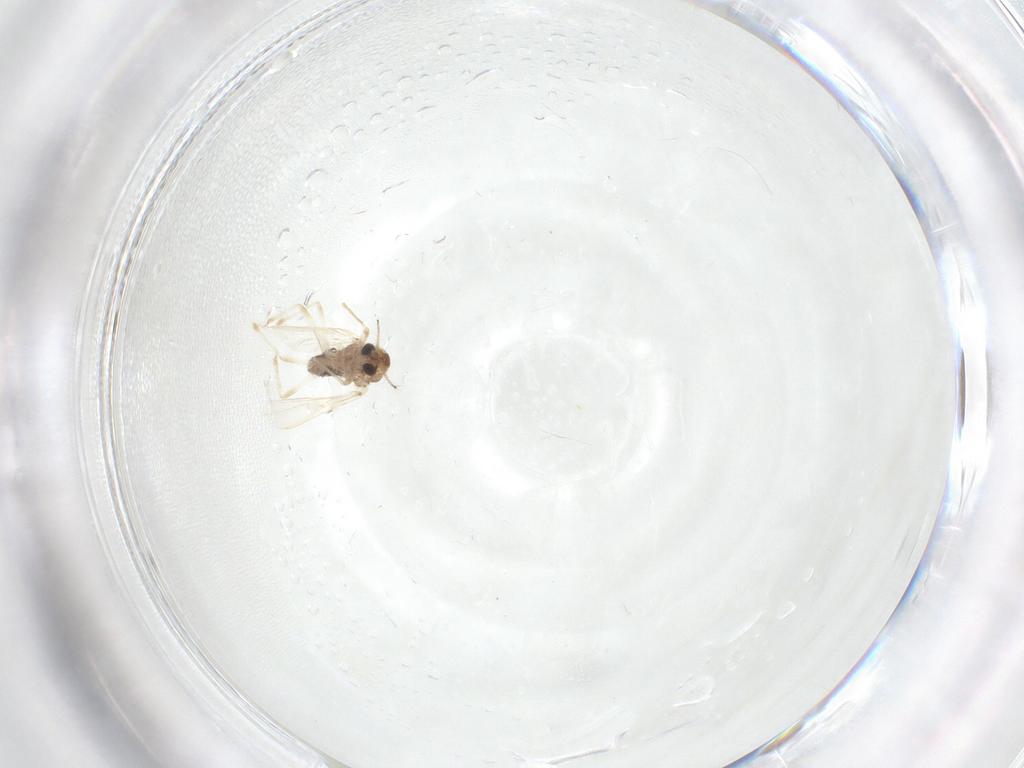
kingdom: Animalia
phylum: Arthropoda
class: Insecta
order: Diptera
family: Chironomidae
